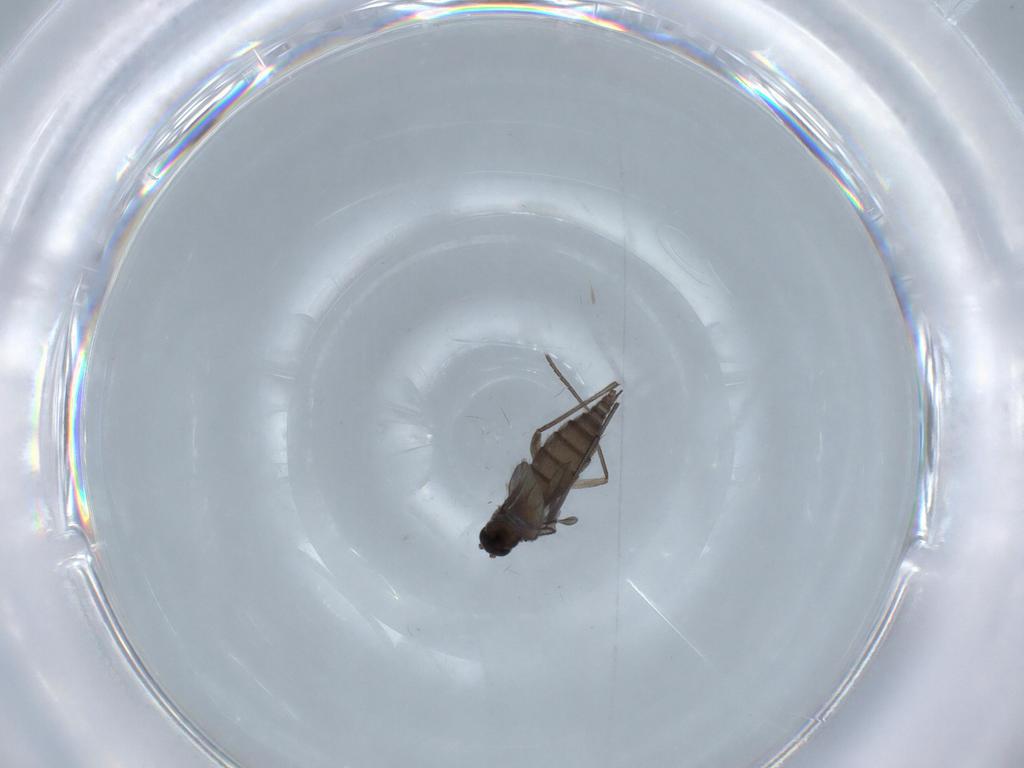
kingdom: Animalia
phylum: Arthropoda
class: Insecta
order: Diptera
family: Sciaridae
